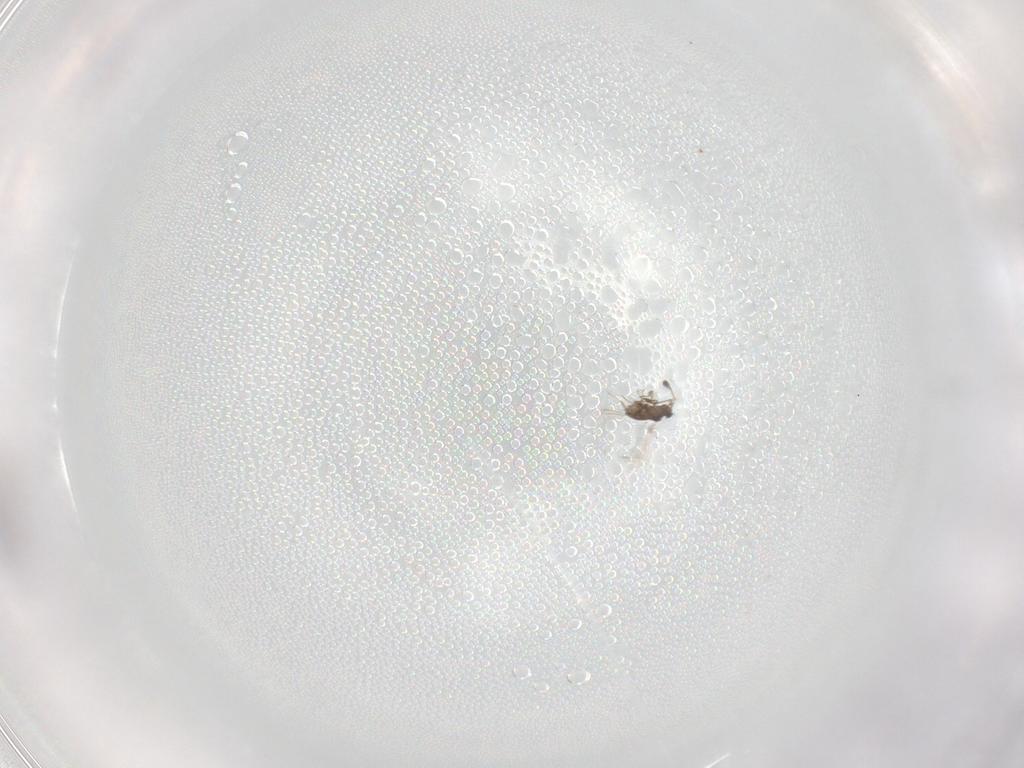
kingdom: Animalia
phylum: Arthropoda
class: Insecta
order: Hymenoptera
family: Mymaridae
